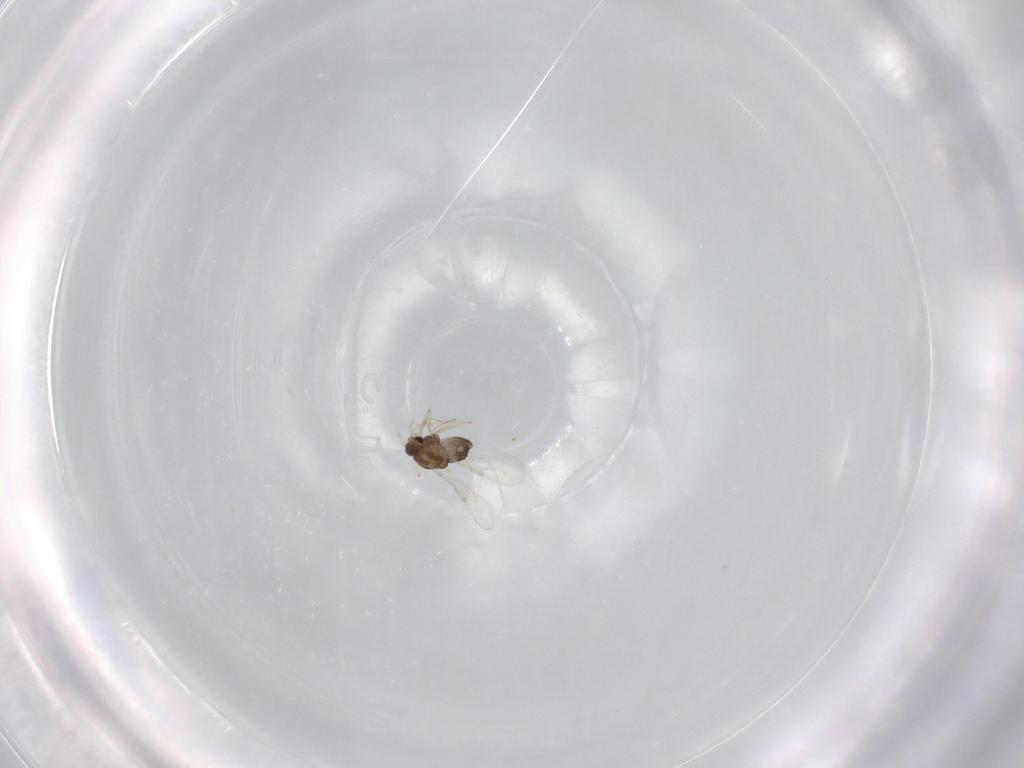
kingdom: Animalia
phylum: Arthropoda
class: Insecta
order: Diptera
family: Chironomidae
